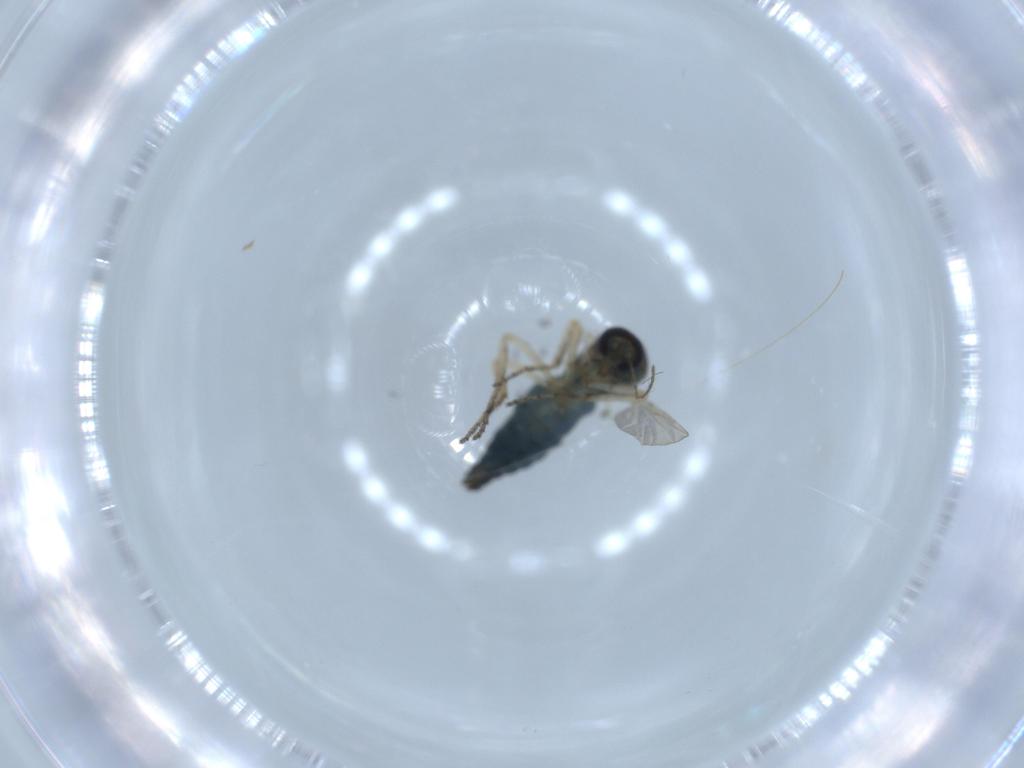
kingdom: Animalia
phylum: Arthropoda
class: Insecta
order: Diptera
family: Ceratopogonidae
